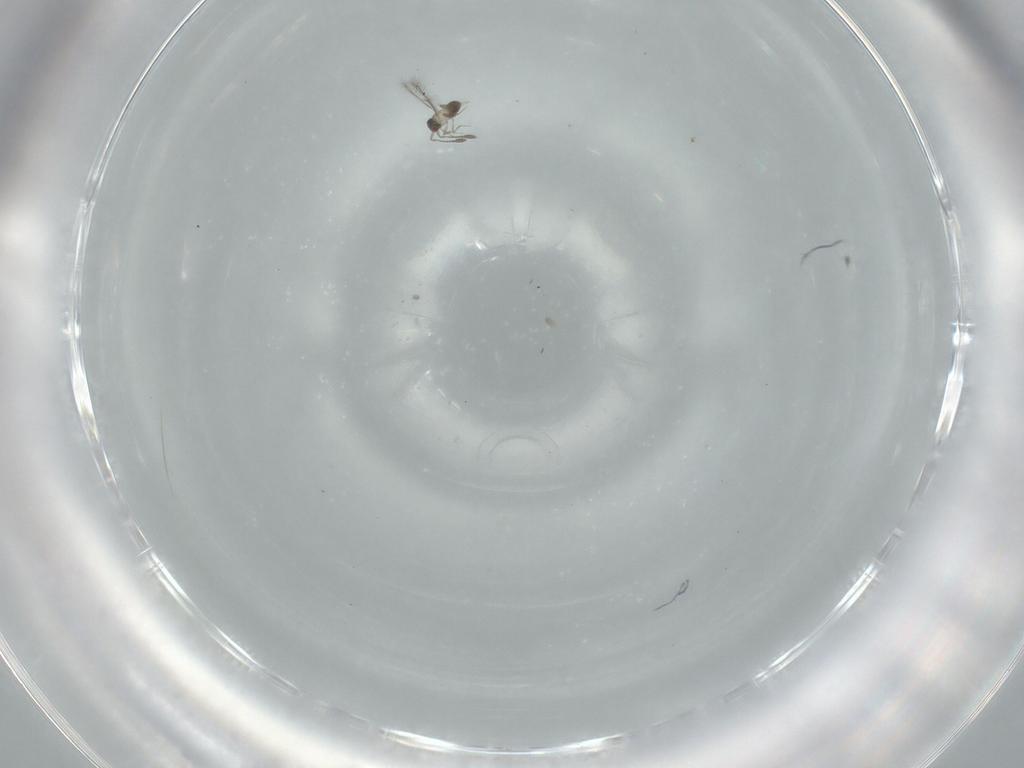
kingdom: Animalia
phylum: Arthropoda
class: Insecta
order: Hymenoptera
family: Mymaridae
